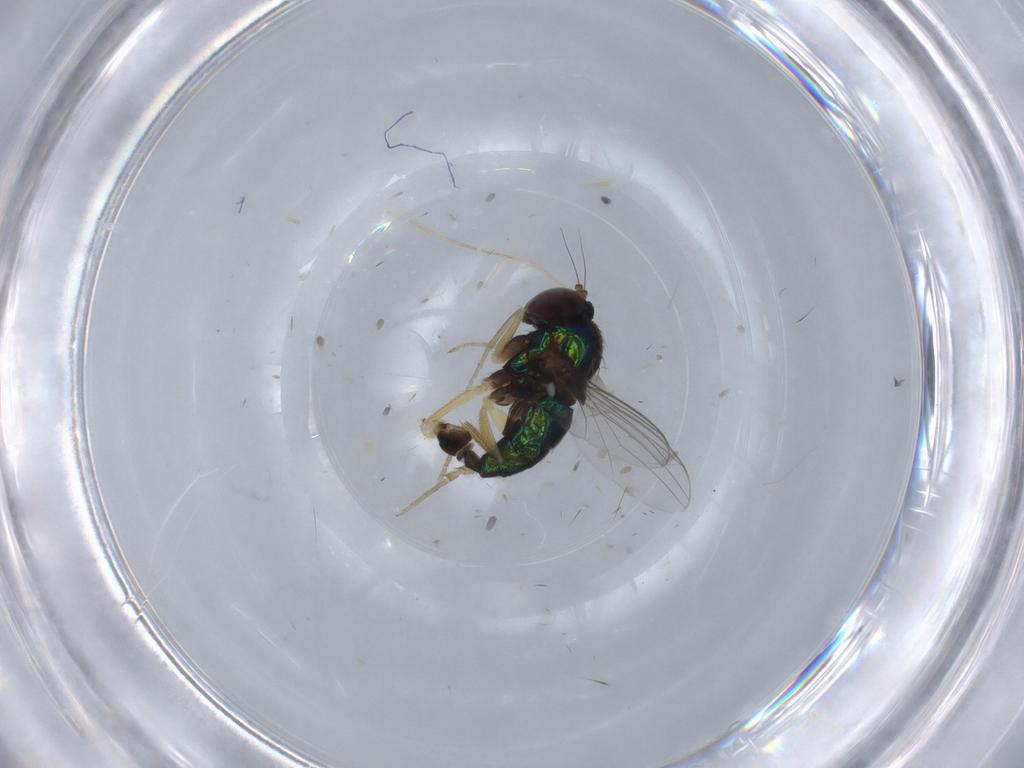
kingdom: Animalia
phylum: Arthropoda
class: Insecta
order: Diptera
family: Dolichopodidae
